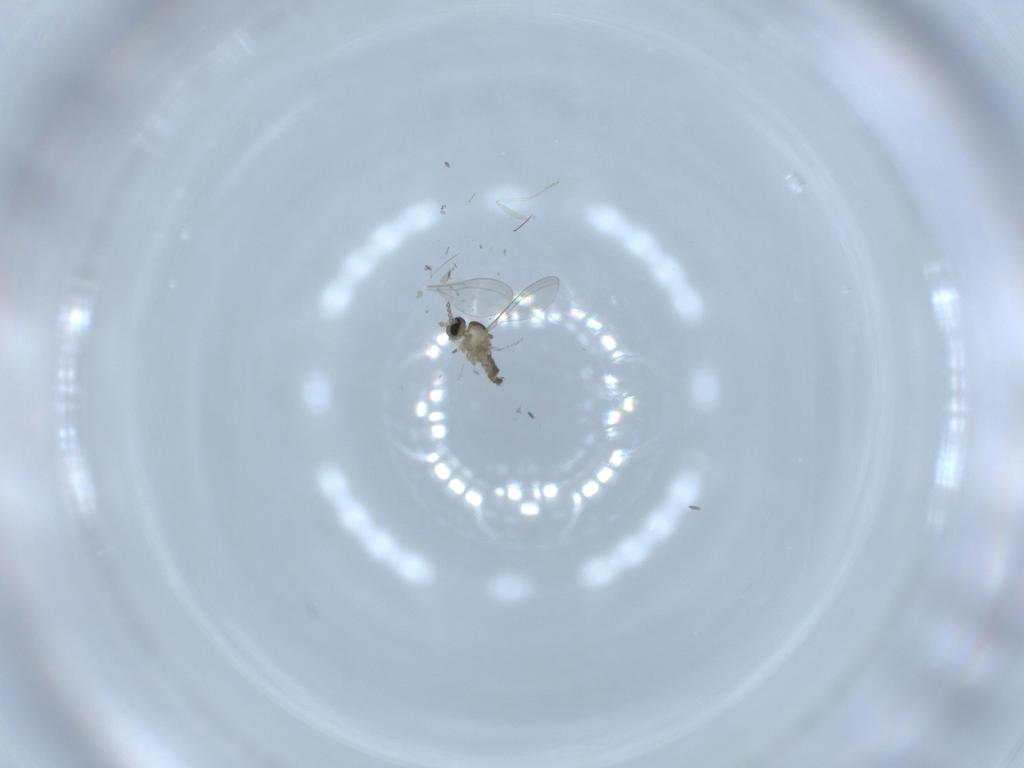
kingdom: Animalia
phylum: Arthropoda
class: Insecta
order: Diptera
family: Cecidomyiidae
